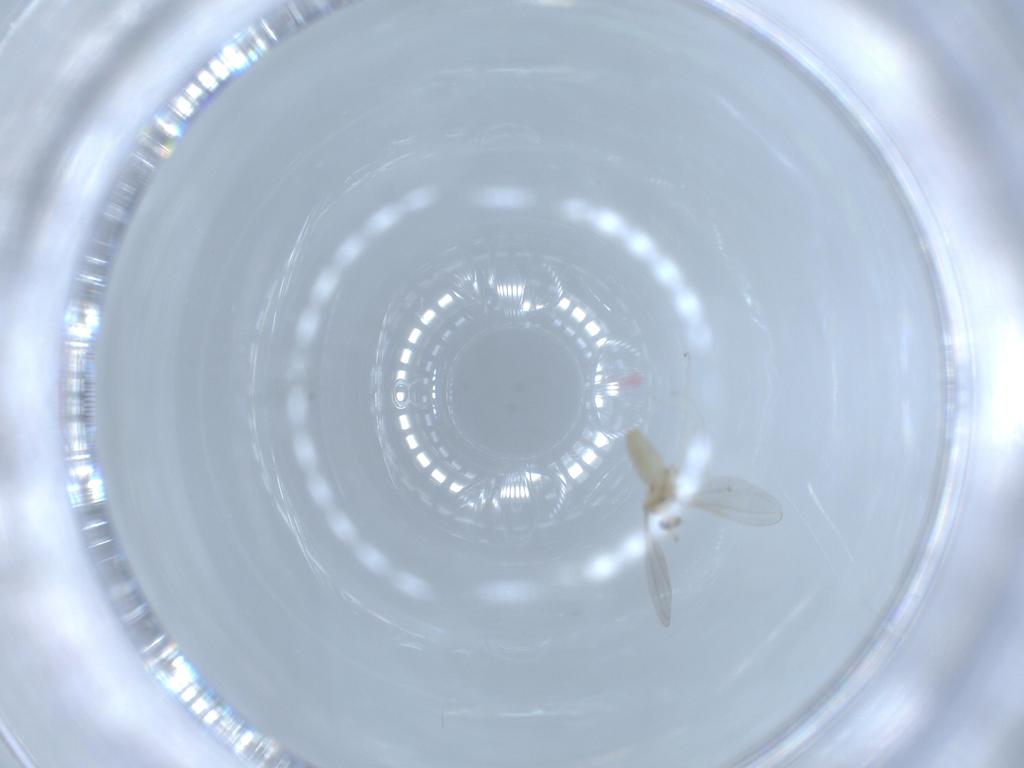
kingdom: Animalia
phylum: Arthropoda
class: Insecta
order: Diptera
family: Cecidomyiidae
